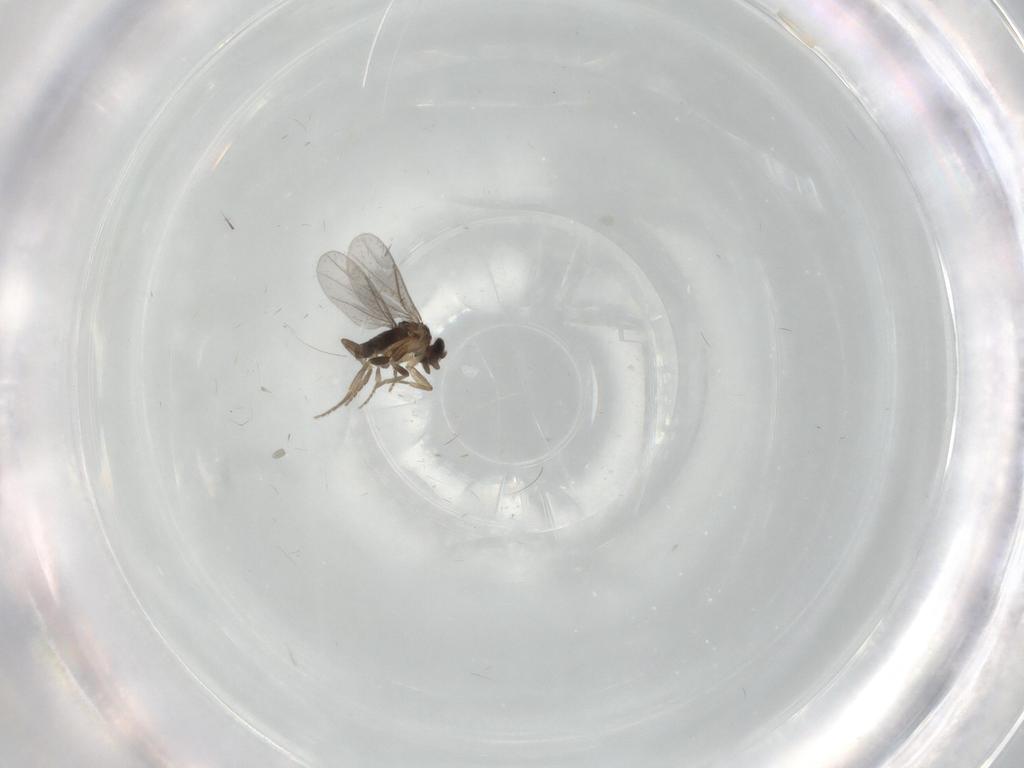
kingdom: Animalia
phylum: Arthropoda
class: Insecta
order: Diptera
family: Phoridae
